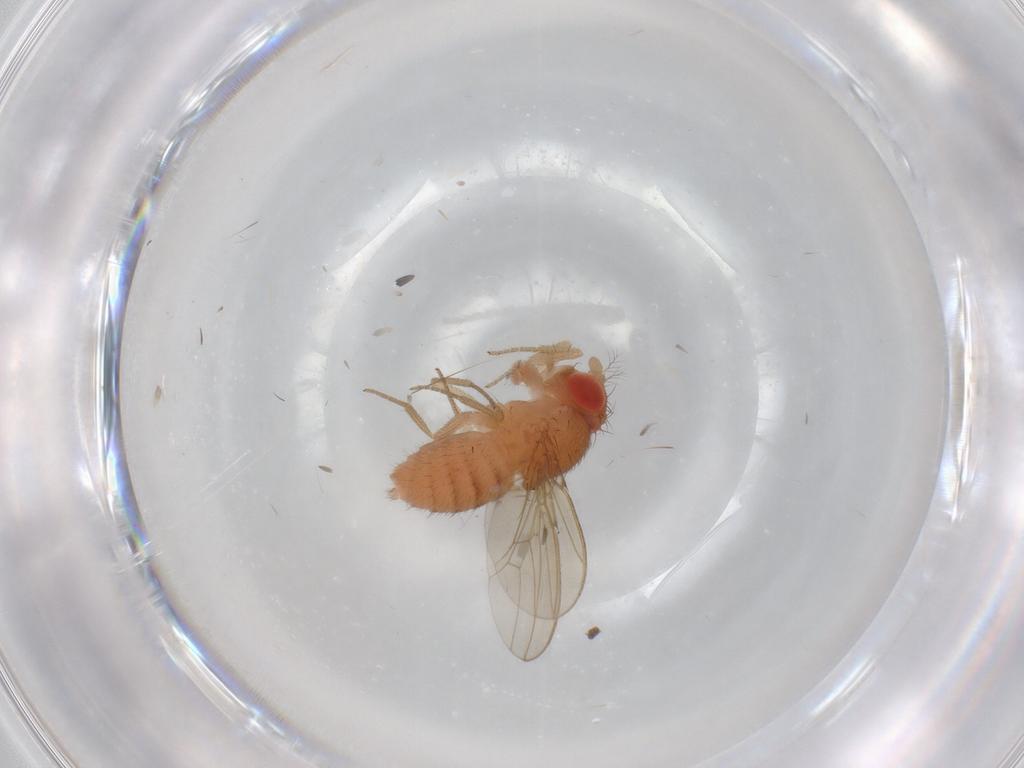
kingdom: Animalia
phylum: Arthropoda
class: Insecta
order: Diptera
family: Drosophilidae
